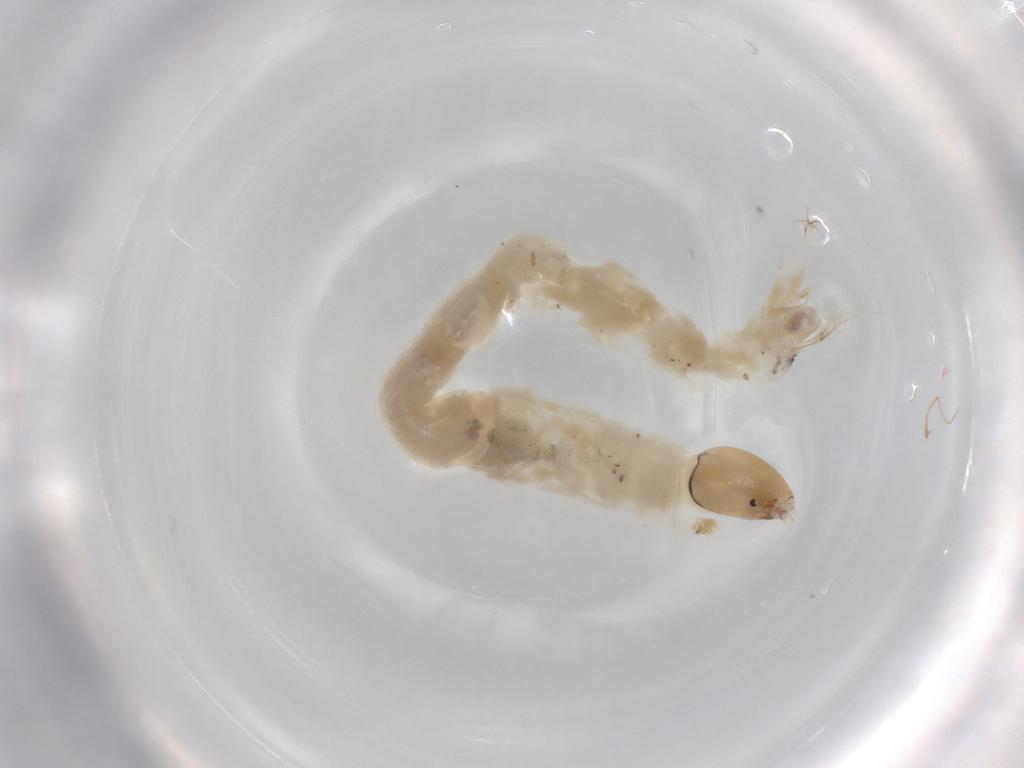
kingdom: Animalia
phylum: Arthropoda
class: Insecta
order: Diptera
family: Chironomidae
